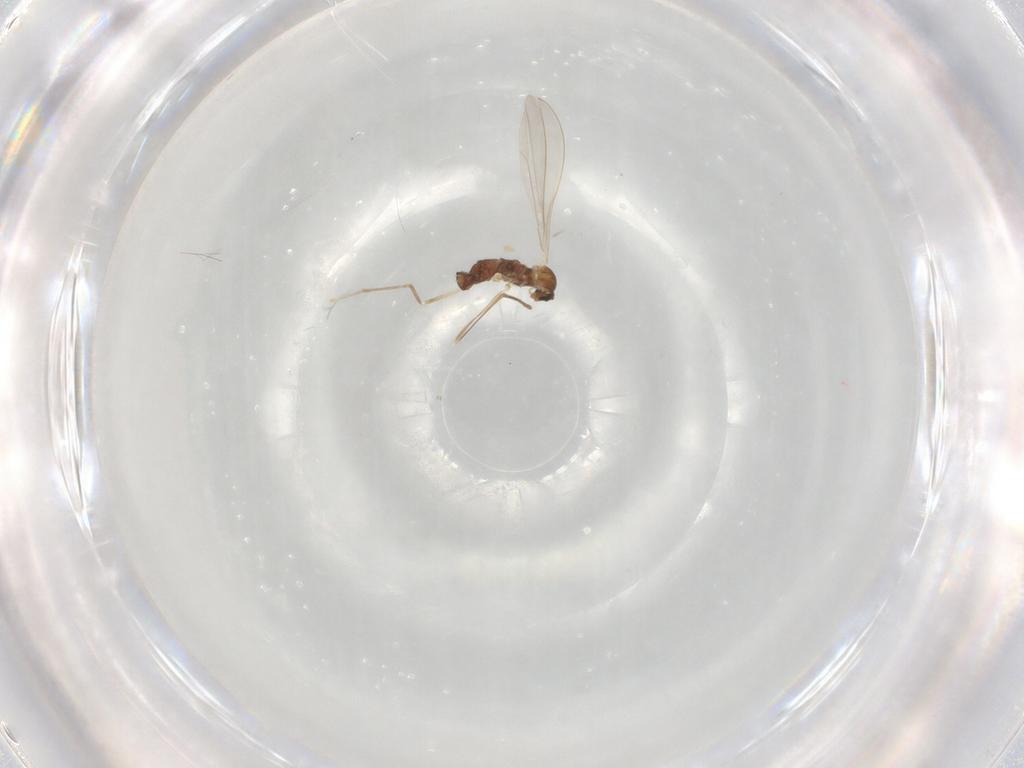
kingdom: Animalia
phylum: Arthropoda
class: Insecta
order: Diptera
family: Cecidomyiidae
